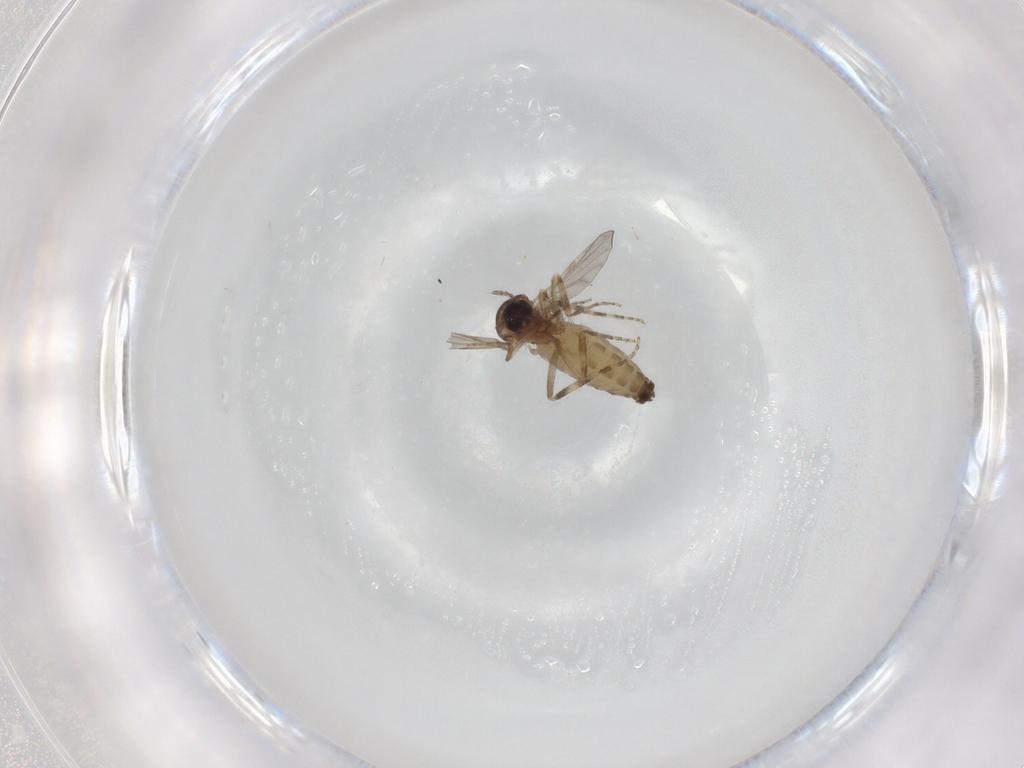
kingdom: Animalia
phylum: Arthropoda
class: Insecta
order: Diptera
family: Ceratopogonidae
